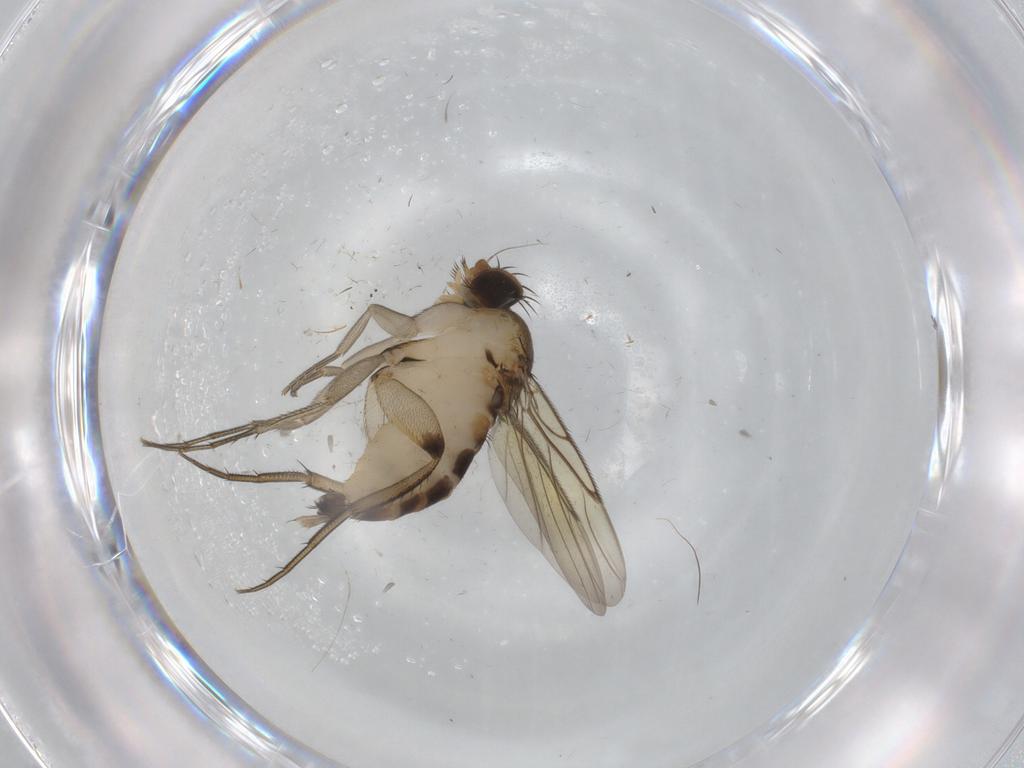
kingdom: Animalia
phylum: Arthropoda
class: Insecta
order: Diptera
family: Phoridae
